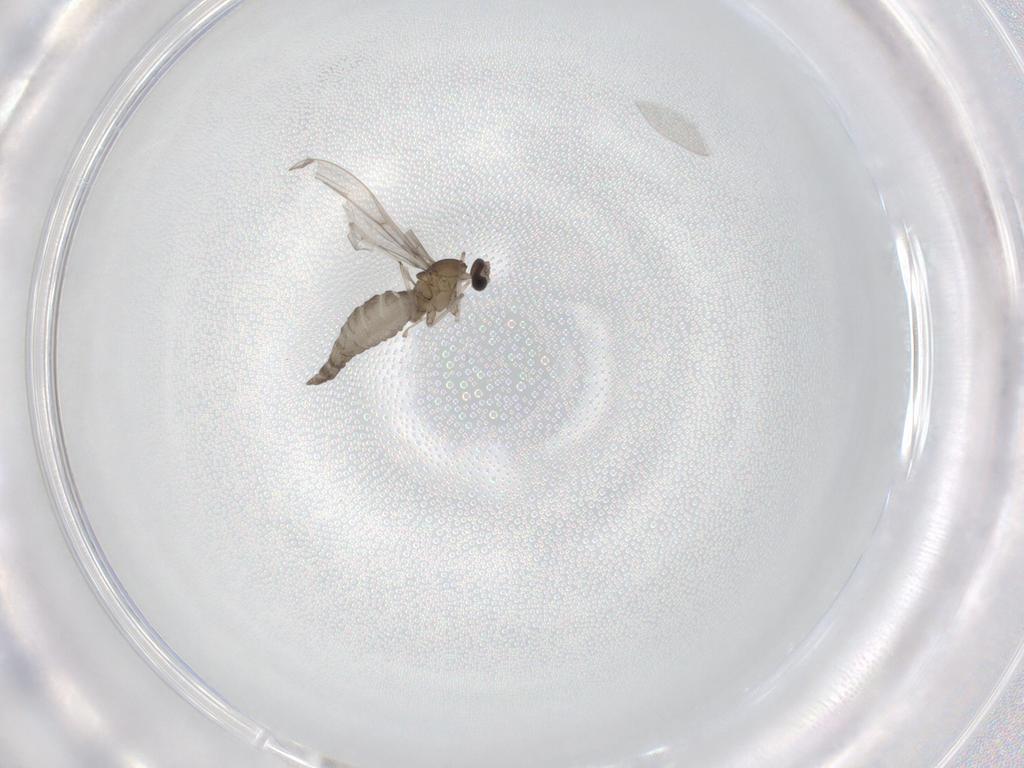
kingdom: Animalia
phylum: Arthropoda
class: Insecta
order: Diptera
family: Cecidomyiidae
